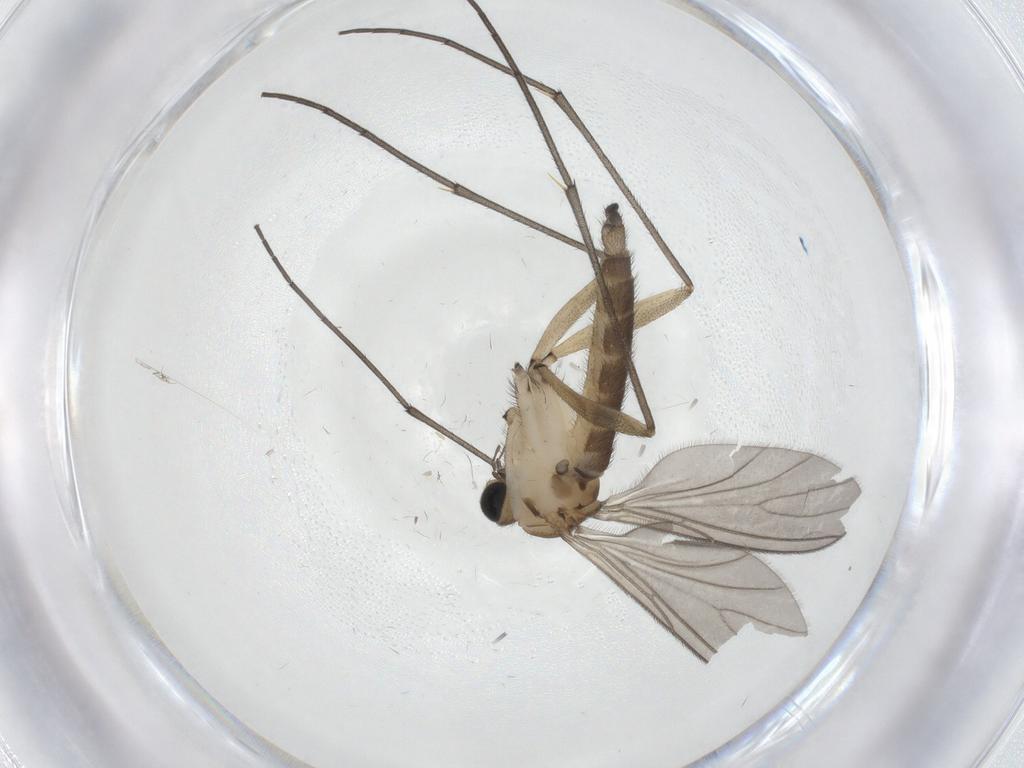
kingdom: Animalia
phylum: Arthropoda
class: Insecta
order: Diptera
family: Sciaridae
